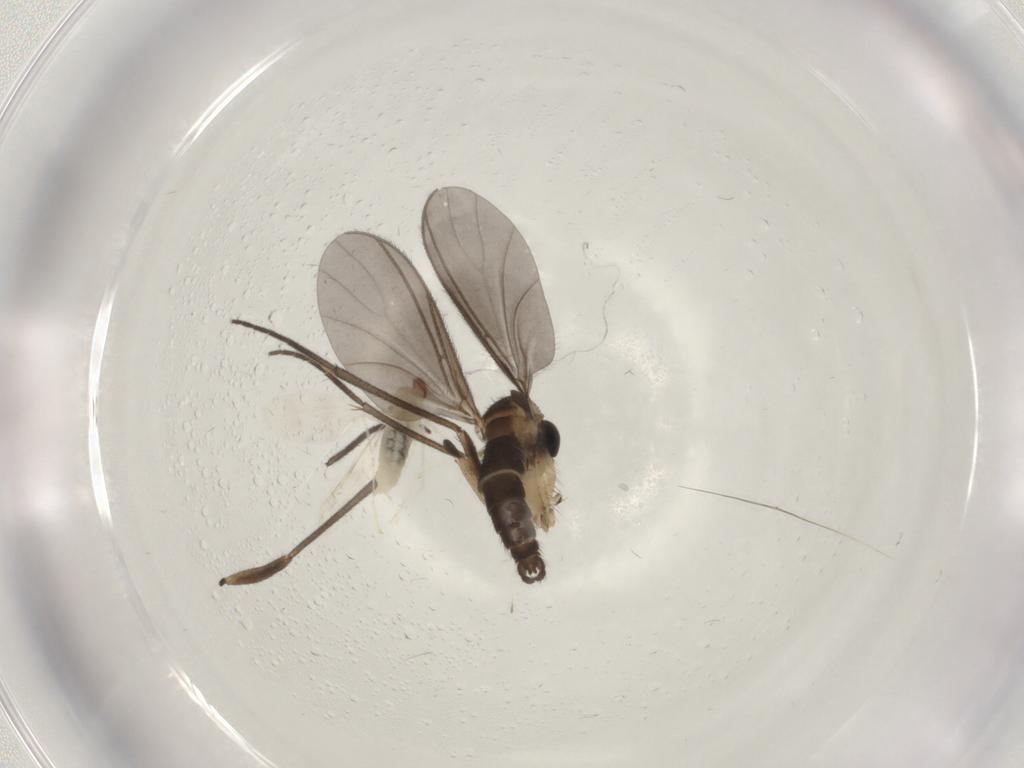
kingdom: Animalia
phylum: Arthropoda
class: Insecta
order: Diptera
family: Sciaridae
